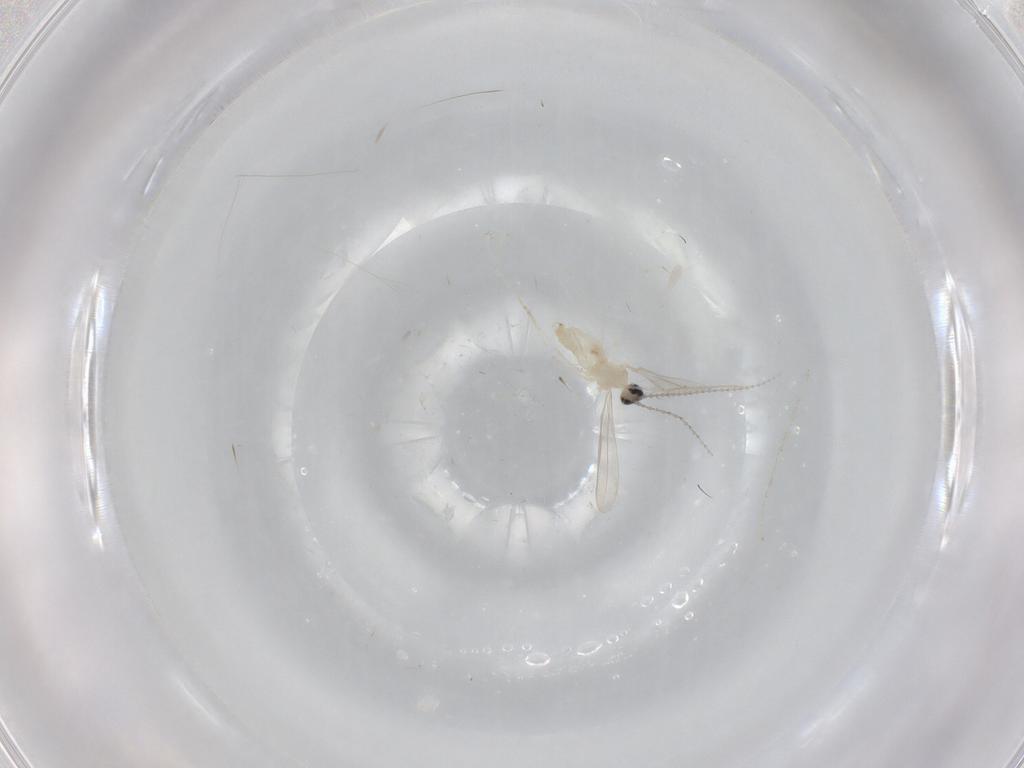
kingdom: Animalia
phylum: Arthropoda
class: Insecta
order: Diptera
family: Cecidomyiidae
